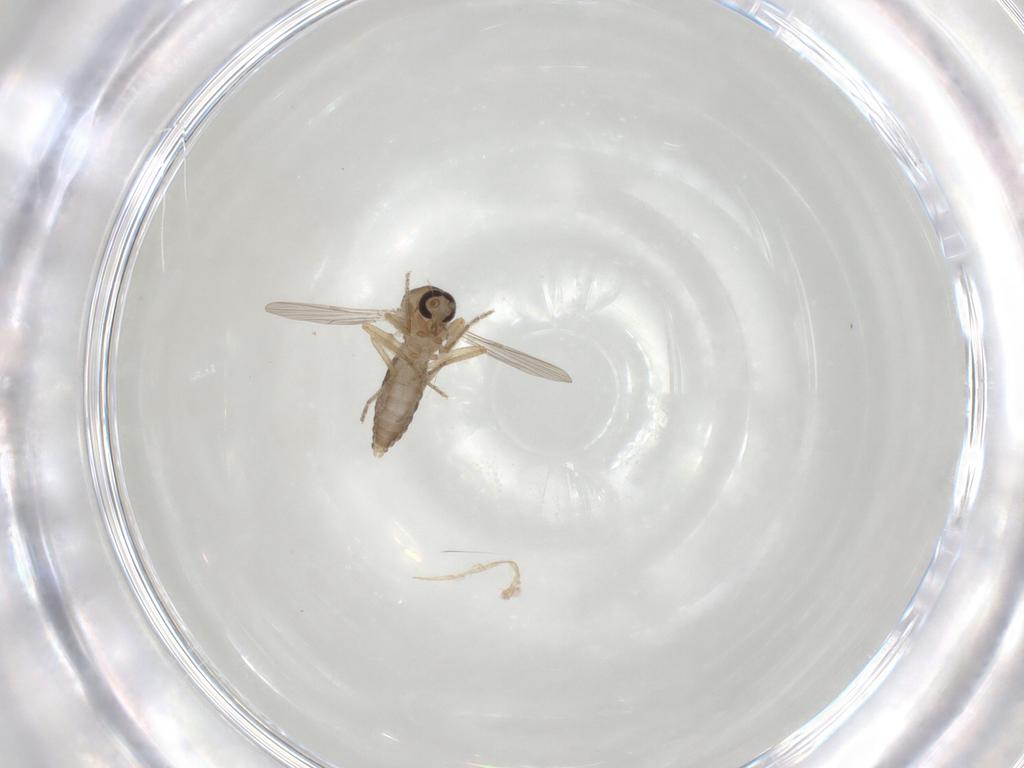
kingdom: Animalia
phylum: Arthropoda
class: Insecta
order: Diptera
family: Ceratopogonidae
